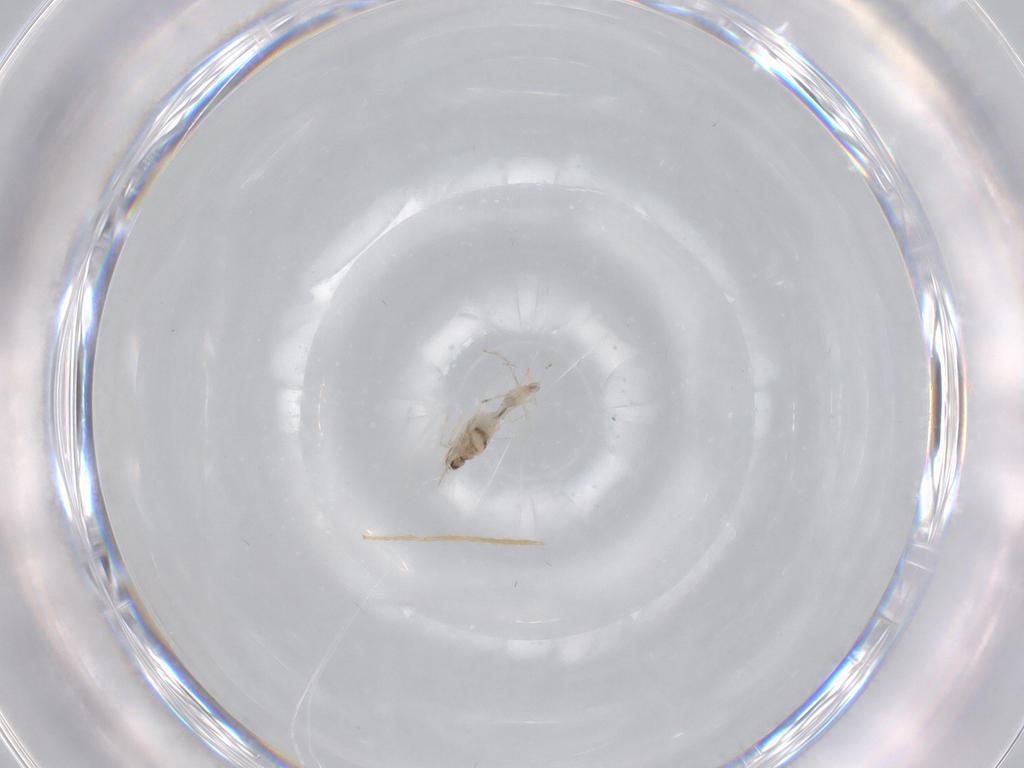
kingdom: Animalia
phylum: Arthropoda
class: Insecta
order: Diptera
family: Cecidomyiidae
